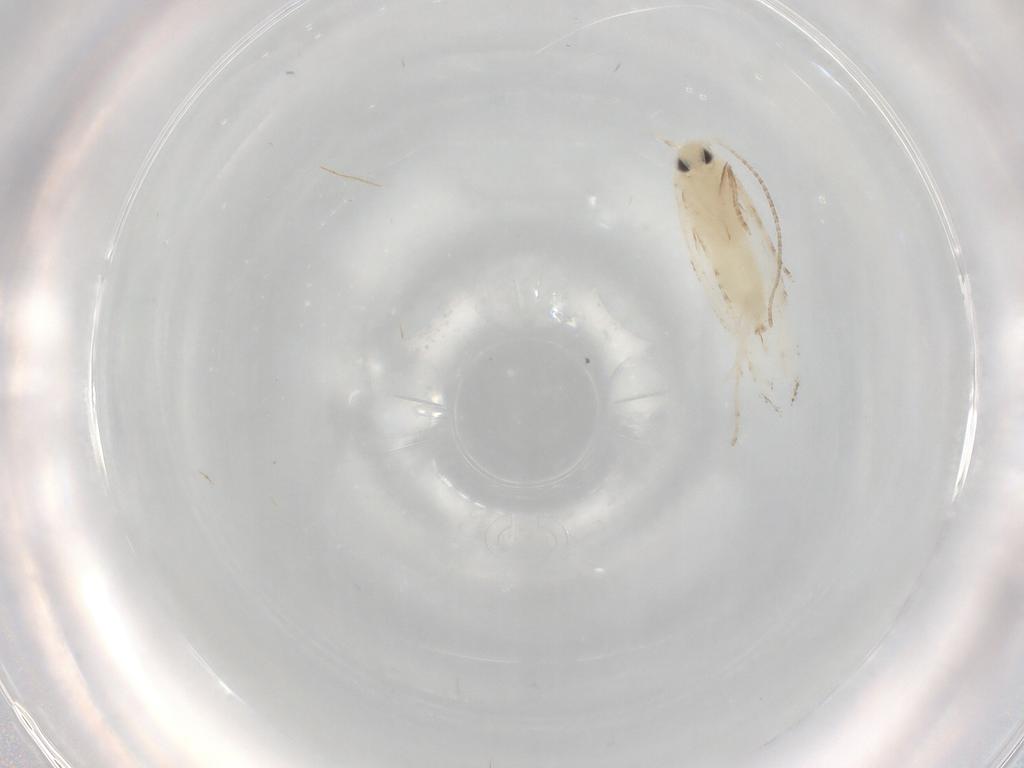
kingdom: Animalia
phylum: Arthropoda
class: Insecta
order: Lepidoptera
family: Lyonetiidae
